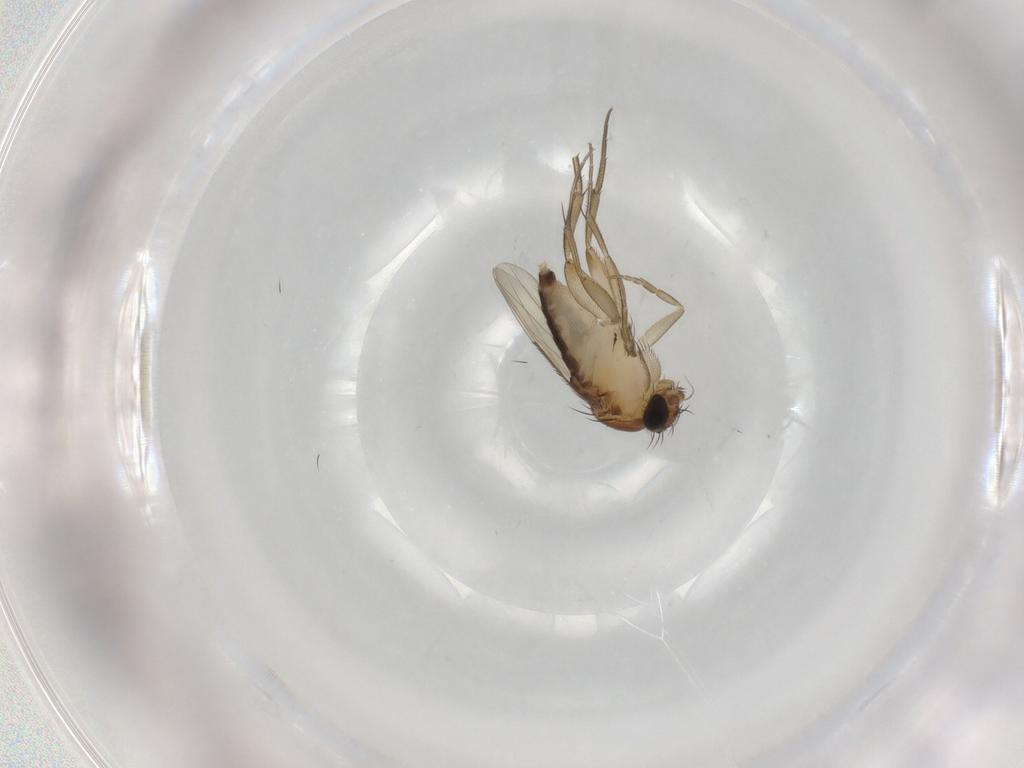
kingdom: Animalia
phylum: Arthropoda
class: Insecta
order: Diptera
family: Phoridae
